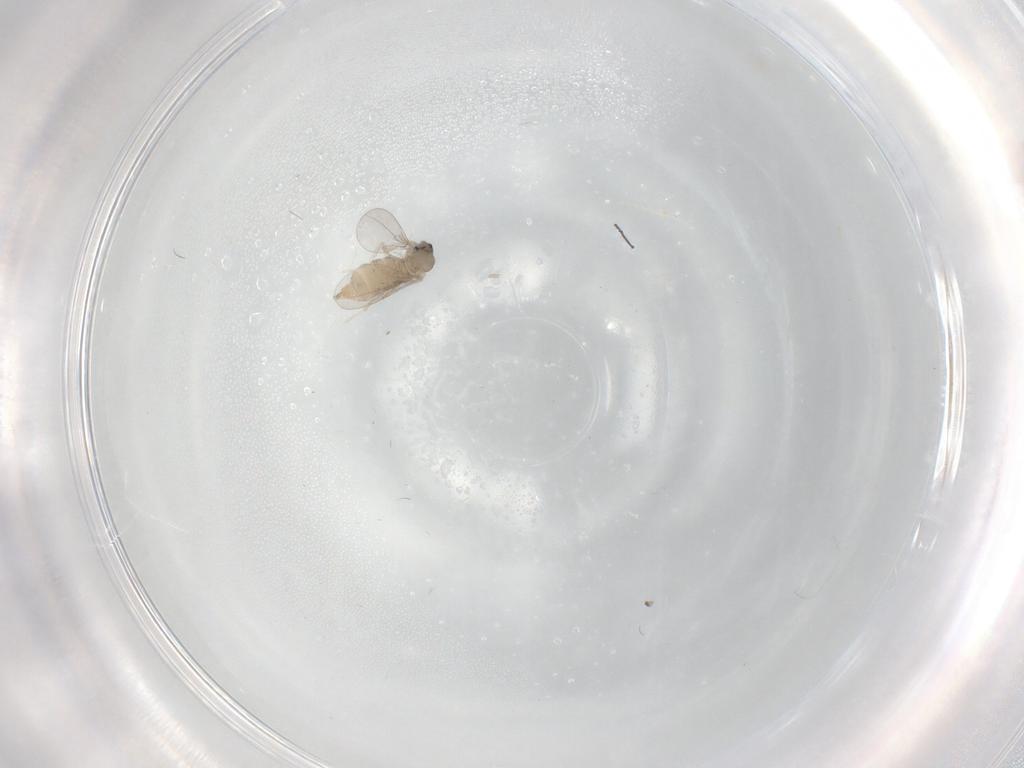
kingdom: Animalia
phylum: Arthropoda
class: Insecta
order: Diptera
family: Cecidomyiidae
